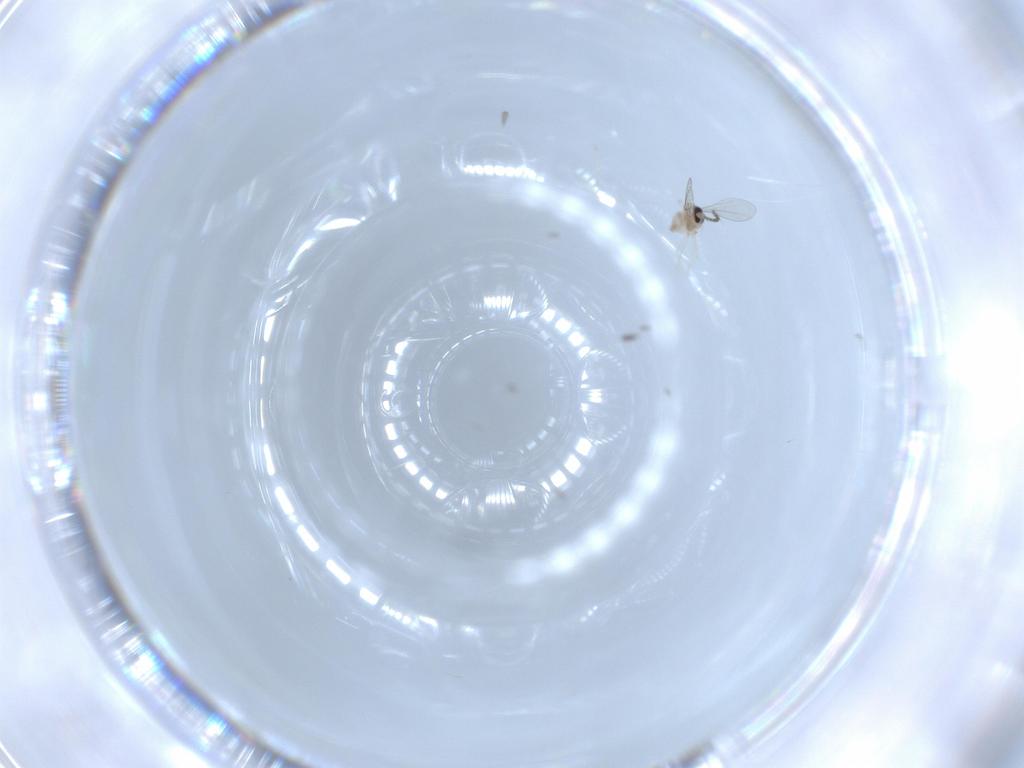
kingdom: Animalia
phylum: Arthropoda
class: Insecta
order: Diptera
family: Cecidomyiidae
